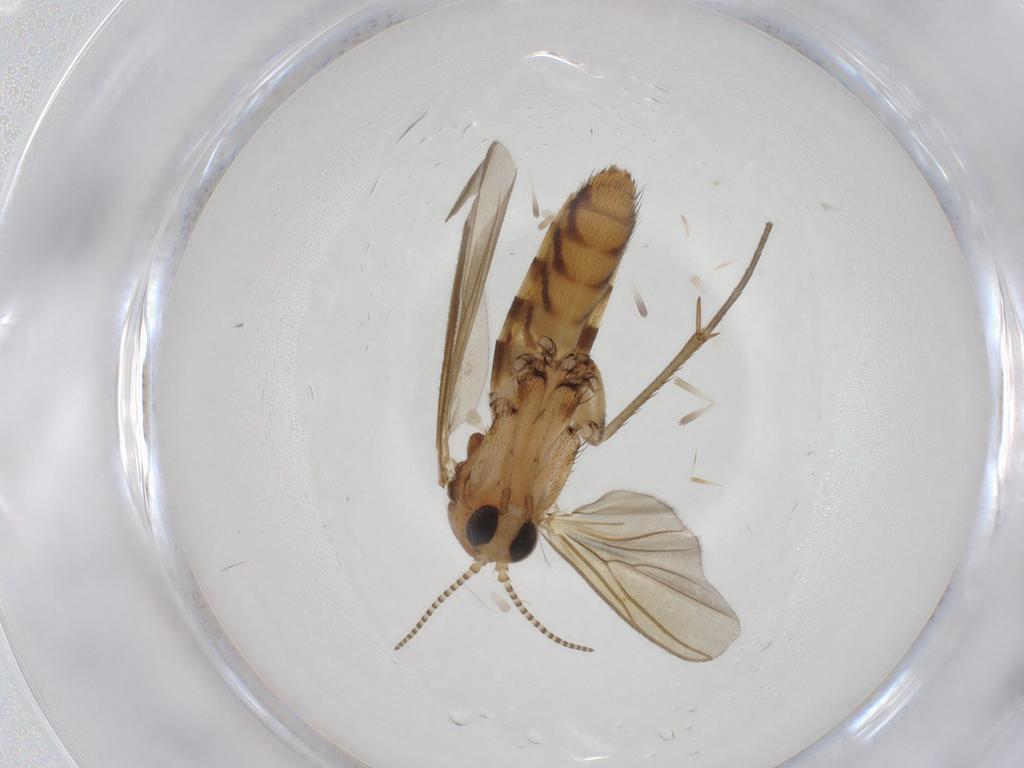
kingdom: Animalia
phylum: Arthropoda
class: Insecta
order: Diptera
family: Mycetophilidae
